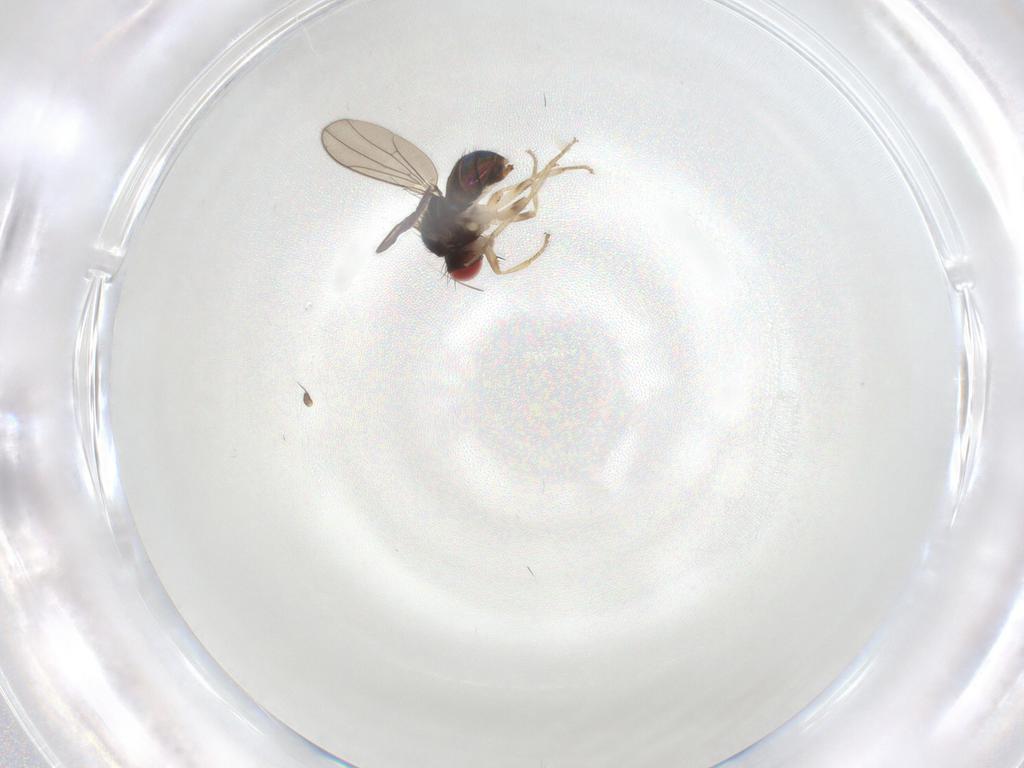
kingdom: Animalia
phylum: Arthropoda
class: Insecta
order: Diptera
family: Drosophilidae
